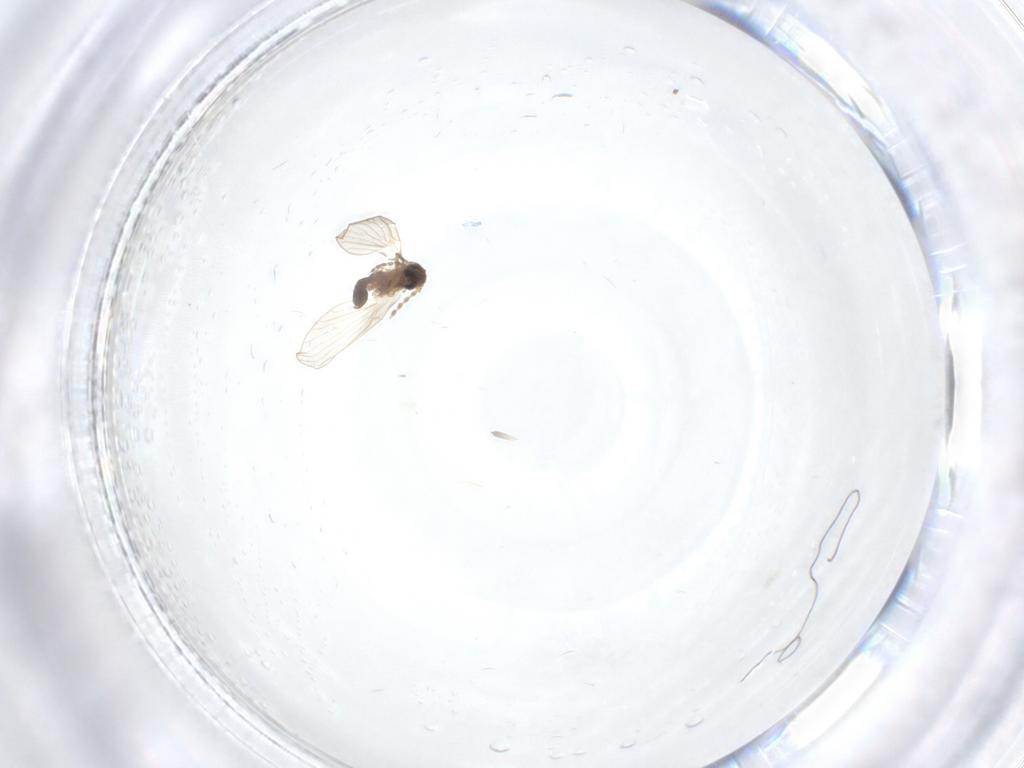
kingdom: Animalia
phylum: Arthropoda
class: Insecta
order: Diptera
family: Psychodidae
